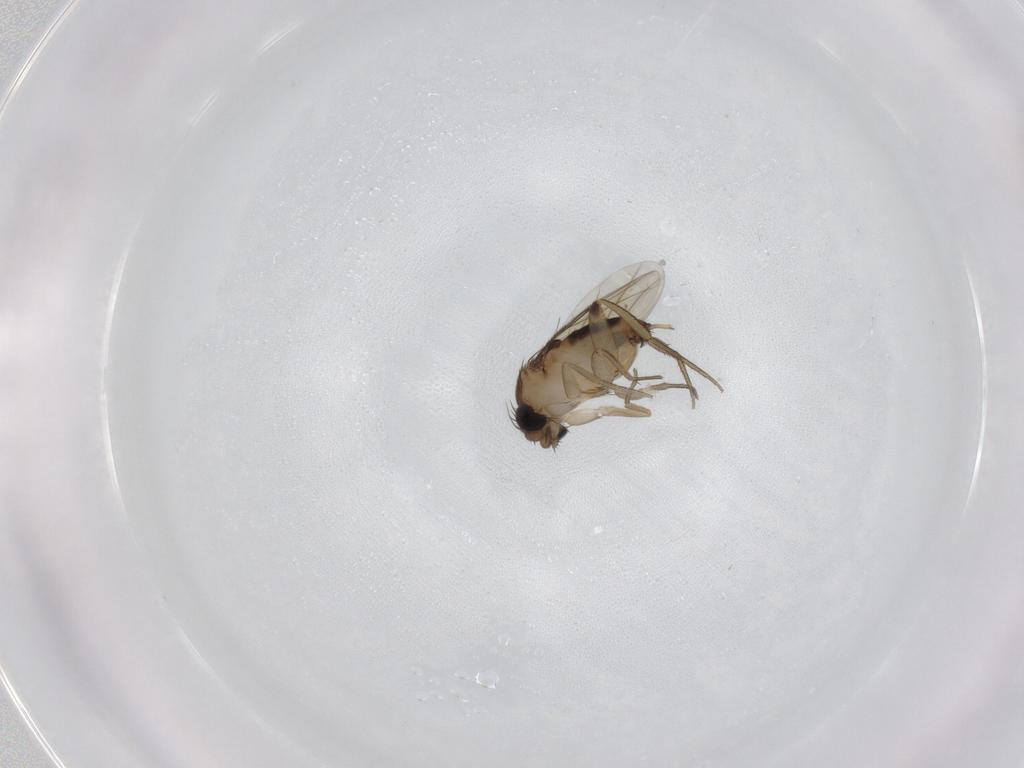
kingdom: Animalia
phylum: Arthropoda
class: Insecta
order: Diptera
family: Phoridae
